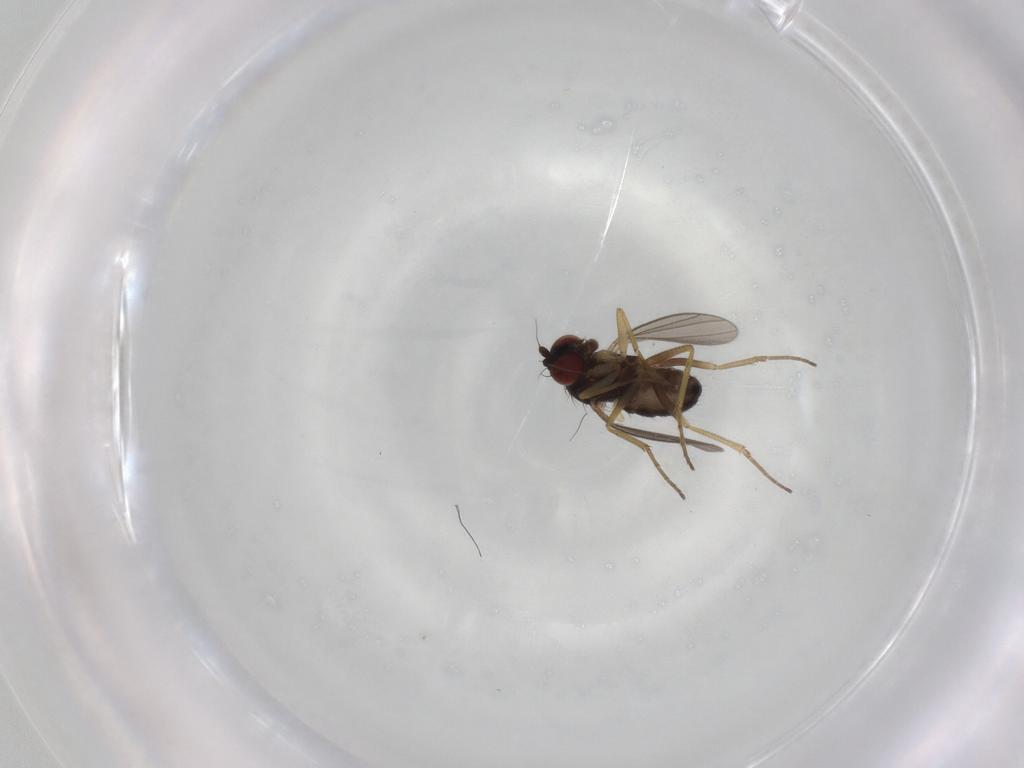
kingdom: Animalia
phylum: Arthropoda
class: Insecta
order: Diptera
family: Dolichopodidae
